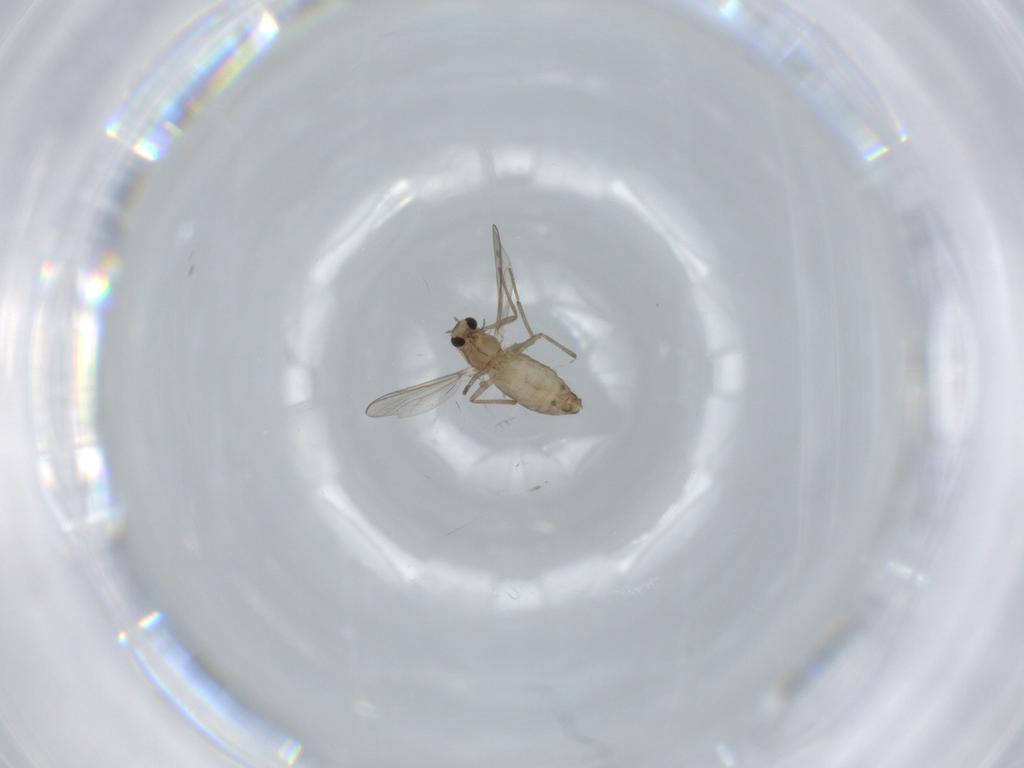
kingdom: Animalia
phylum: Arthropoda
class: Insecta
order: Diptera
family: Chironomidae
